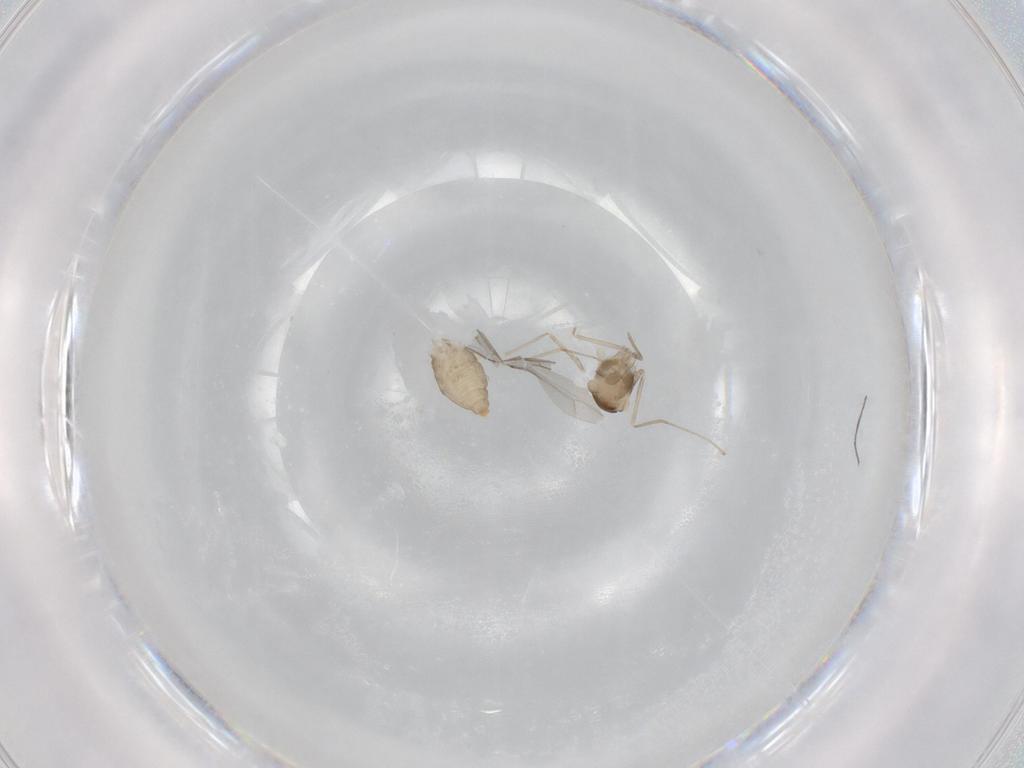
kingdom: Animalia
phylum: Arthropoda
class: Insecta
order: Diptera
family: Cecidomyiidae
